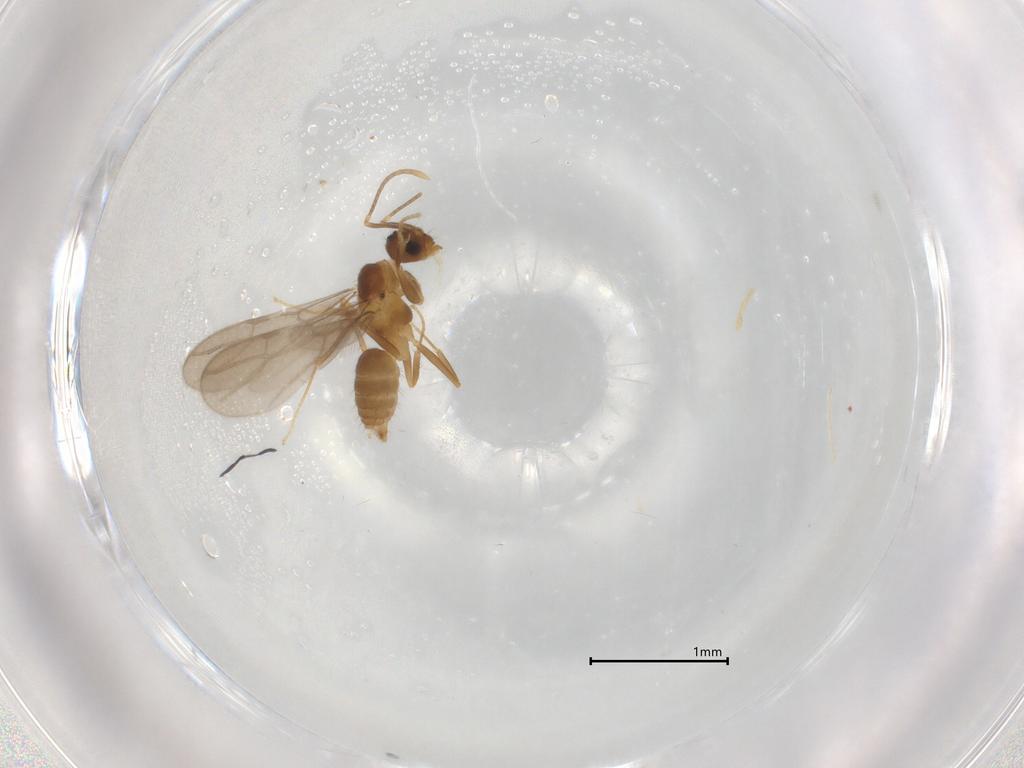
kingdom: Animalia
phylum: Arthropoda
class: Insecta
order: Hymenoptera
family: Formicidae
